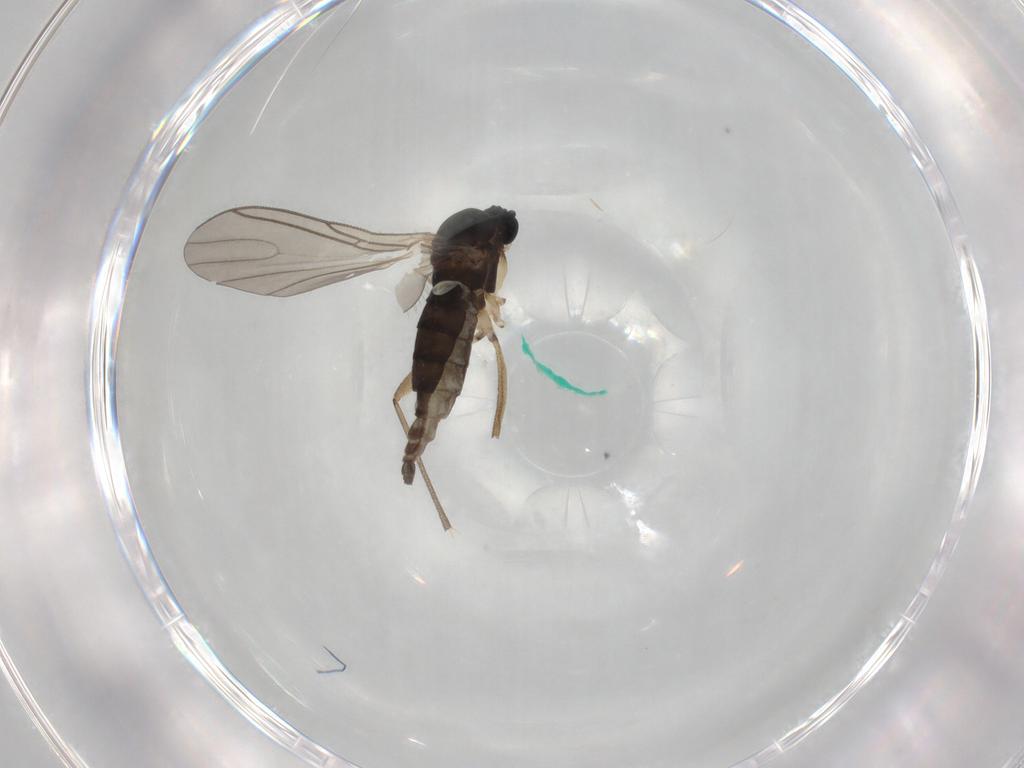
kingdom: Animalia
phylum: Arthropoda
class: Insecta
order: Diptera
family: Sciaridae
